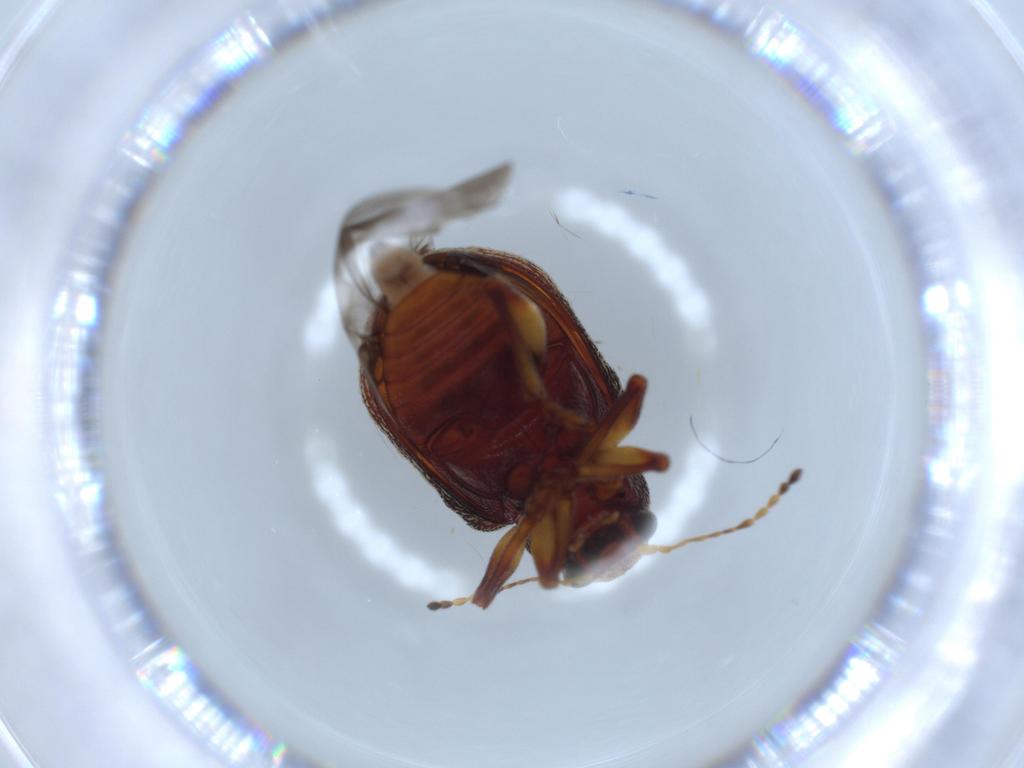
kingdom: Animalia
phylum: Arthropoda
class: Insecta
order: Coleoptera
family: Chrysomelidae
